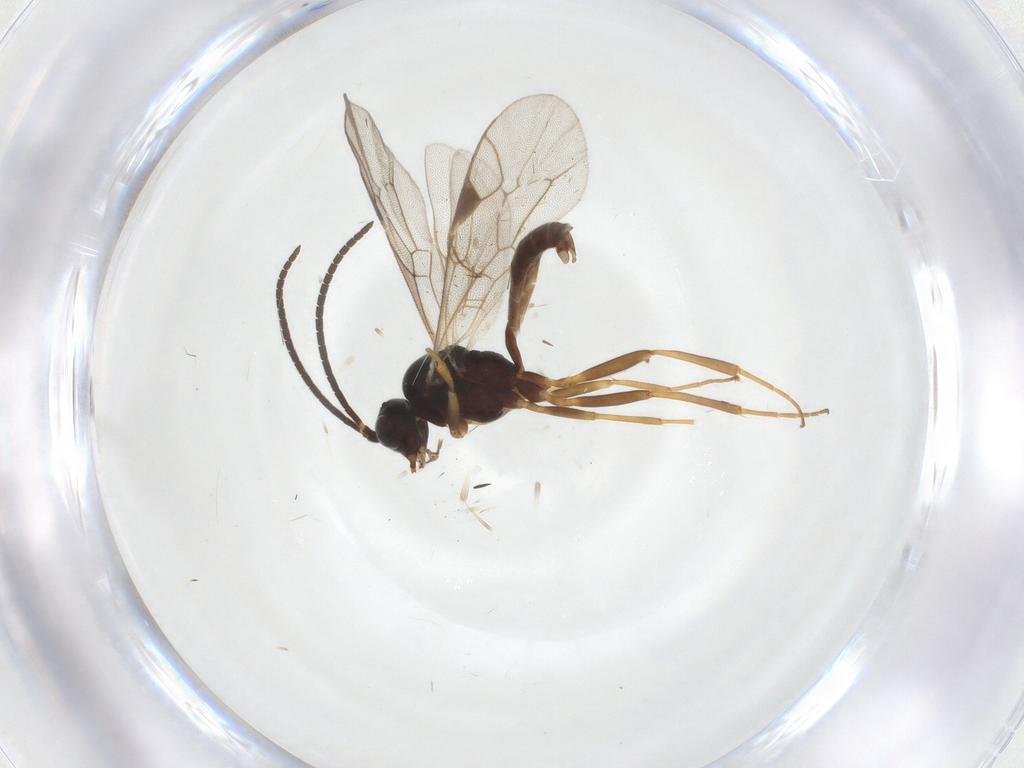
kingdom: Animalia
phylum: Arthropoda
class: Insecta
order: Hymenoptera
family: Ichneumonidae
